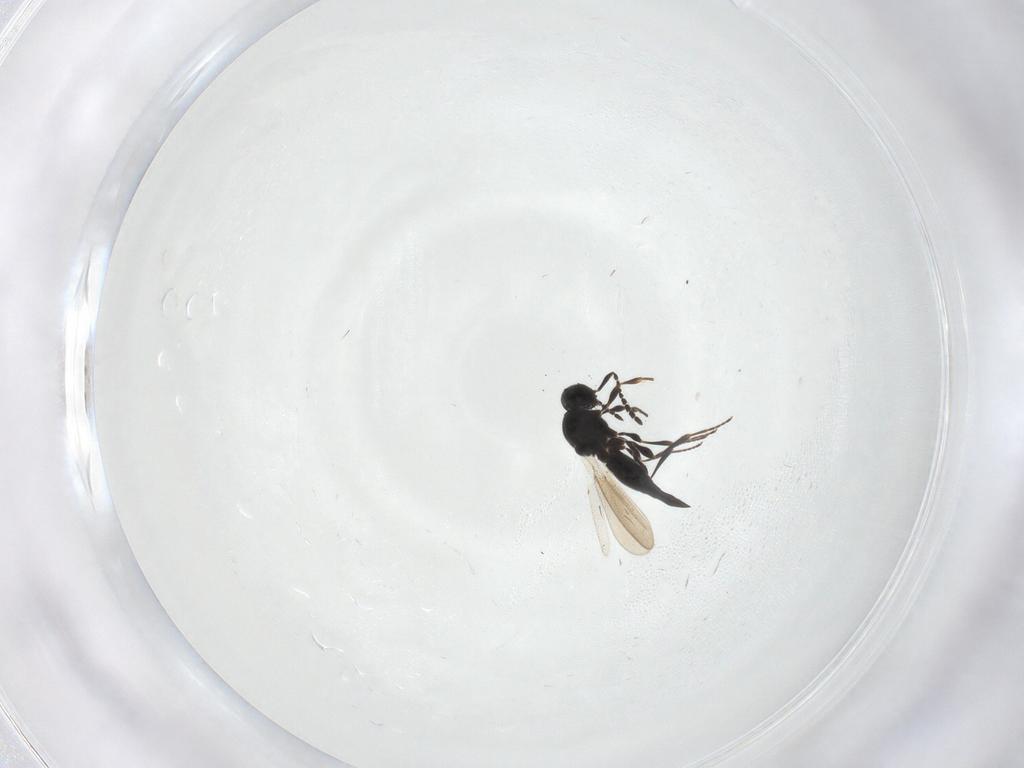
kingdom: Animalia
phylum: Arthropoda
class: Insecta
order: Hymenoptera
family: Platygastridae
